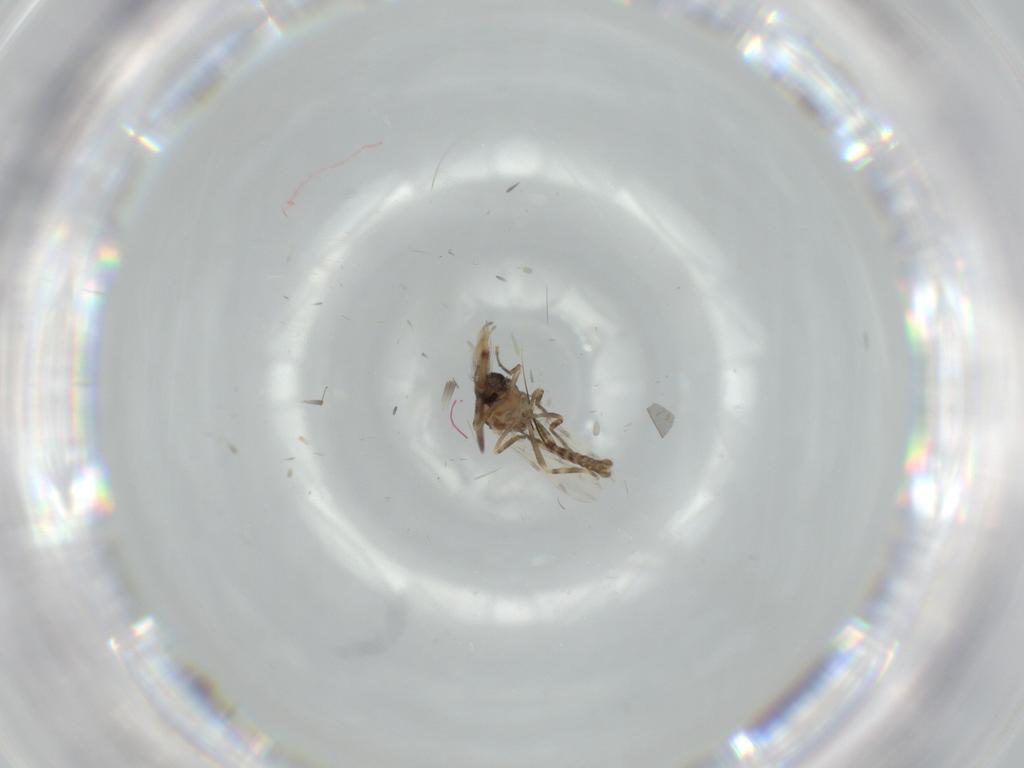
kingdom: Animalia
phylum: Arthropoda
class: Insecta
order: Diptera
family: Ceratopogonidae
